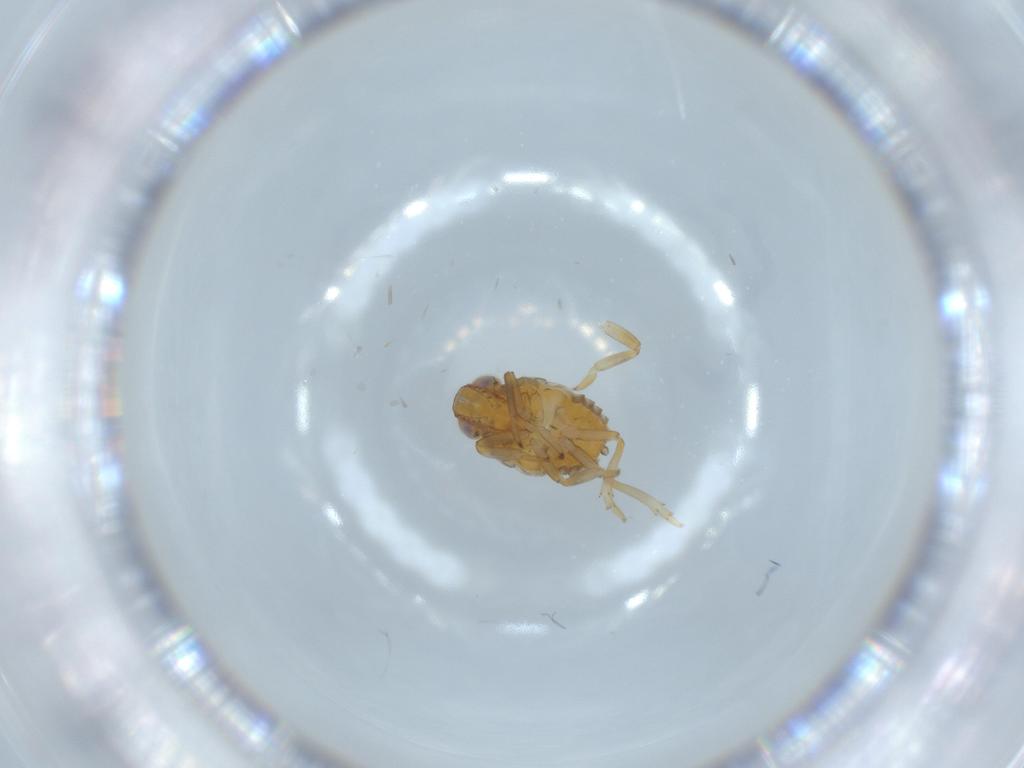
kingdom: Animalia
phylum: Arthropoda
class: Insecta
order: Hemiptera
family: Issidae
